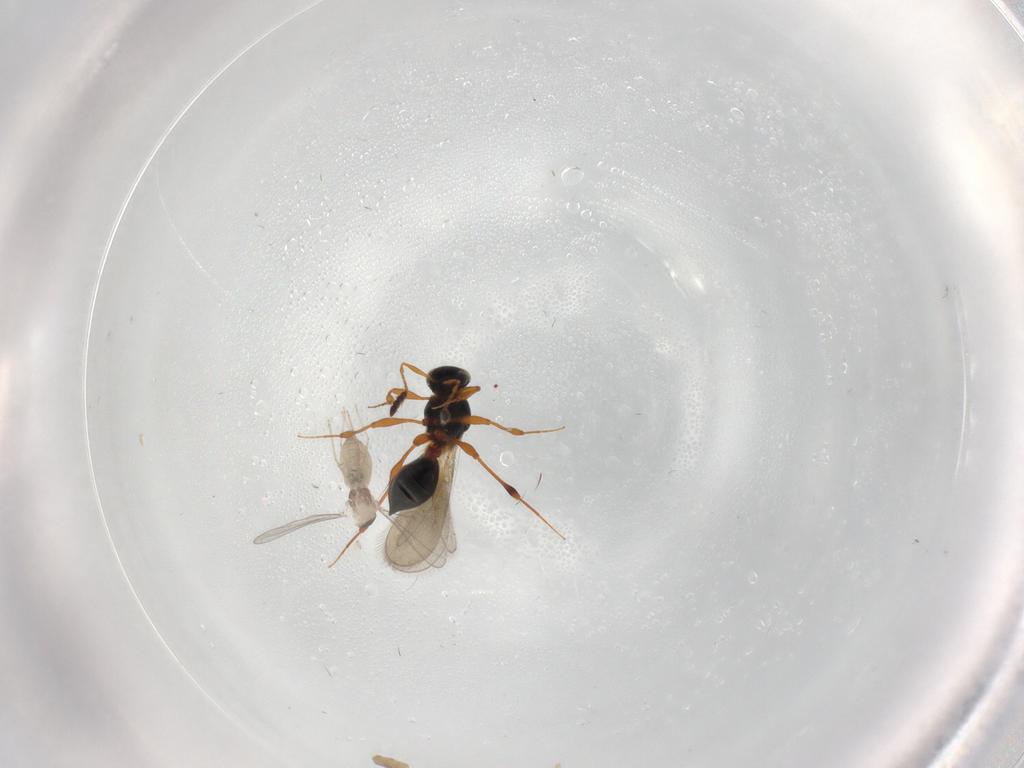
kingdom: Animalia
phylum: Arthropoda
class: Insecta
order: Diptera
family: Cecidomyiidae
